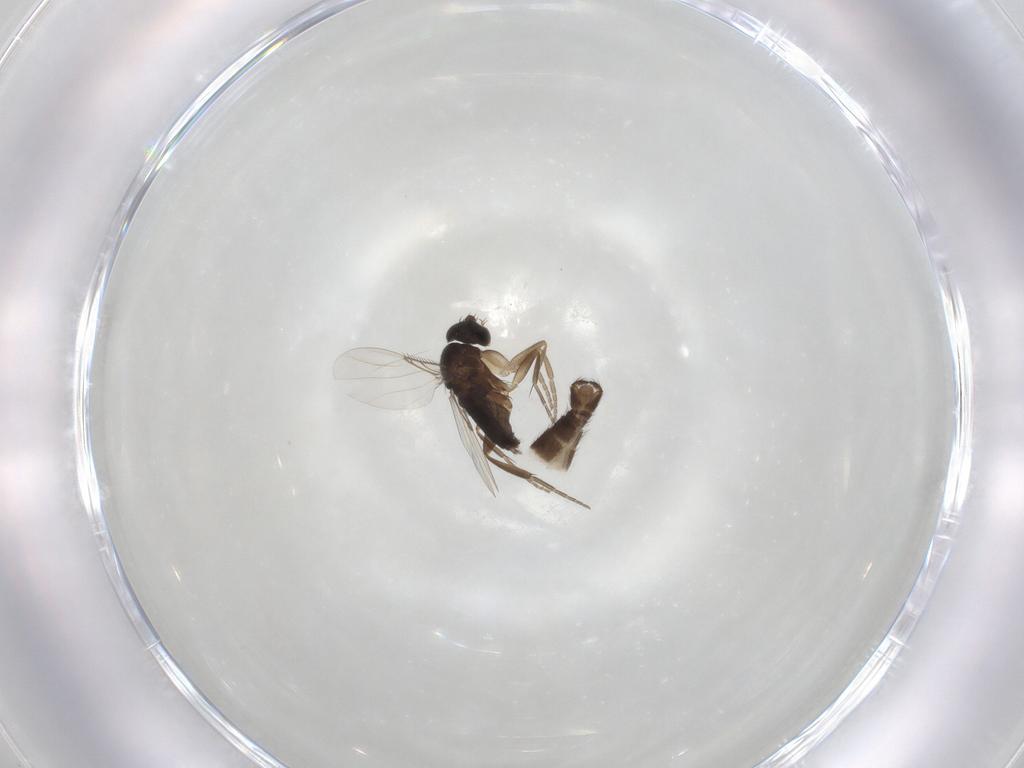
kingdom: Animalia
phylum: Arthropoda
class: Insecta
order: Diptera
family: Phoridae
